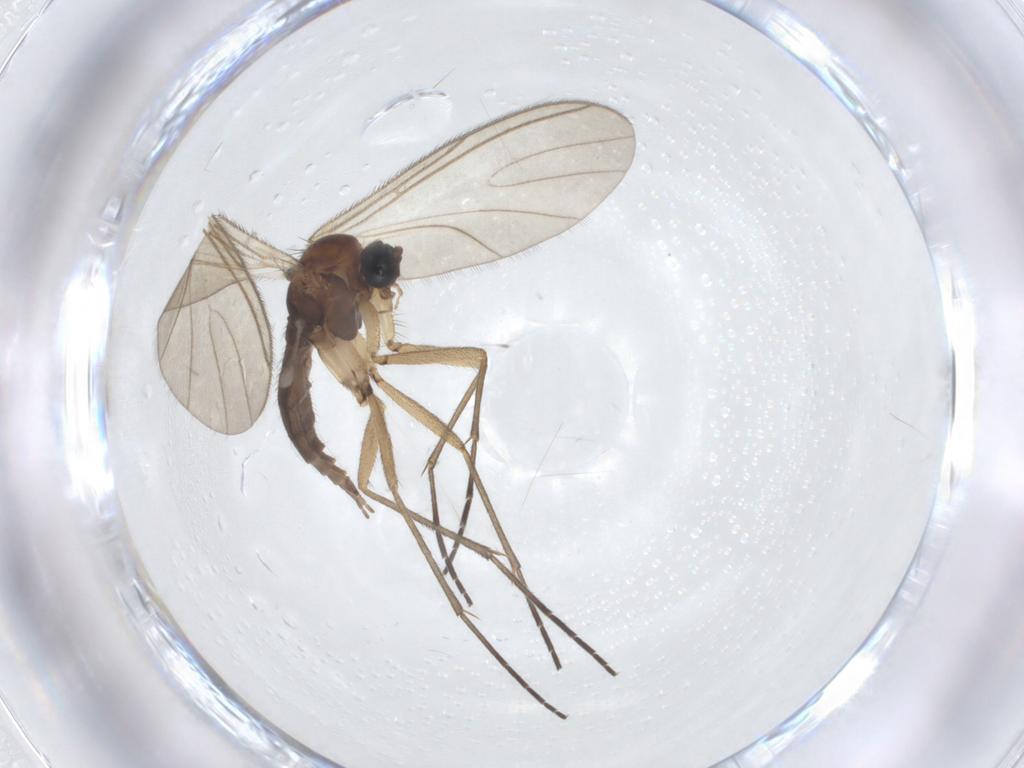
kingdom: Animalia
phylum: Arthropoda
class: Insecta
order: Diptera
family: Sciaridae
